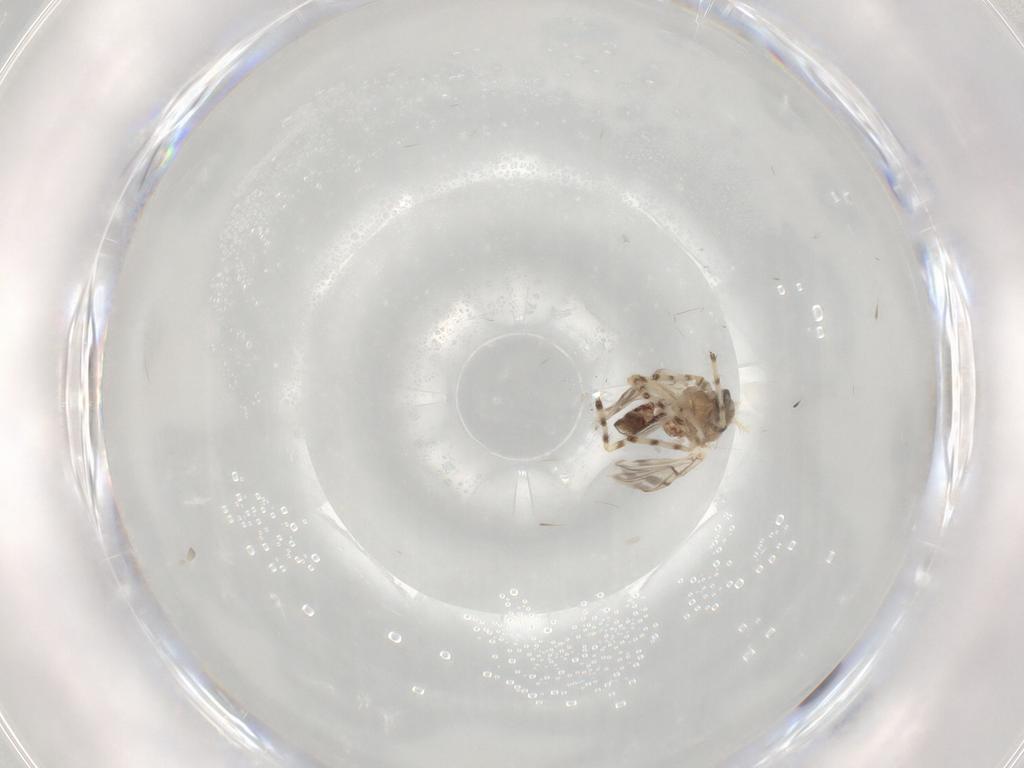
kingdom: Animalia
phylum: Arthropoda
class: Insecta
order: Diptera
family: Chironomidae
